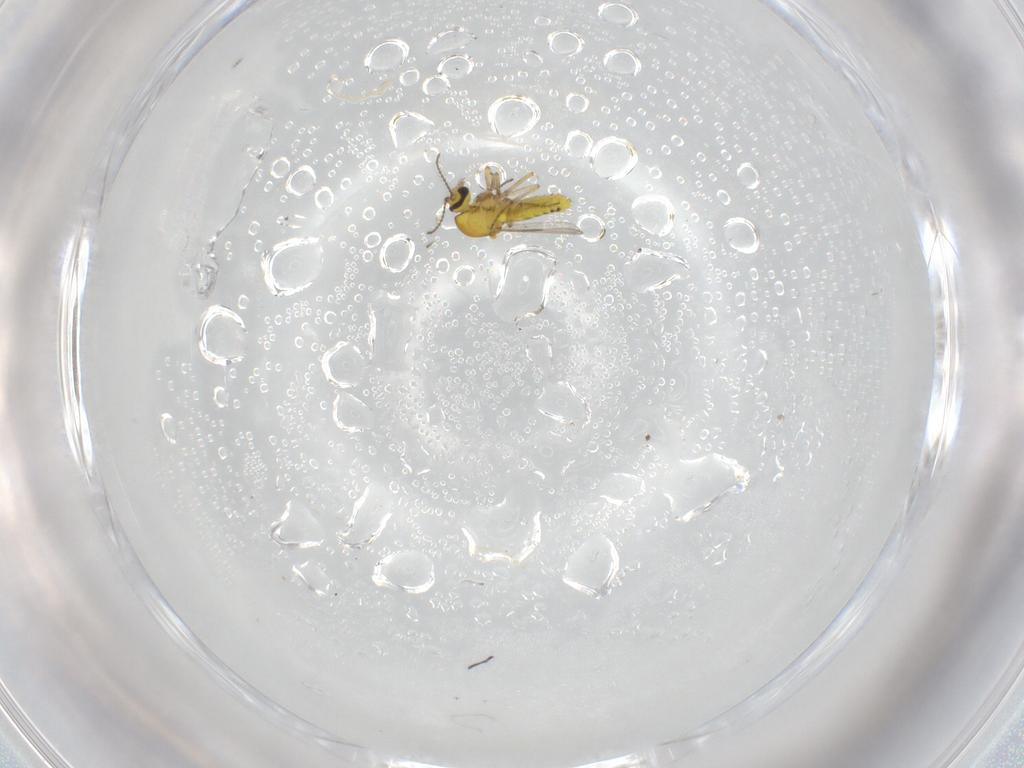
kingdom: Animalia
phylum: Arthropoda
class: Insecta
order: Diptera
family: Ceratopogonidae
